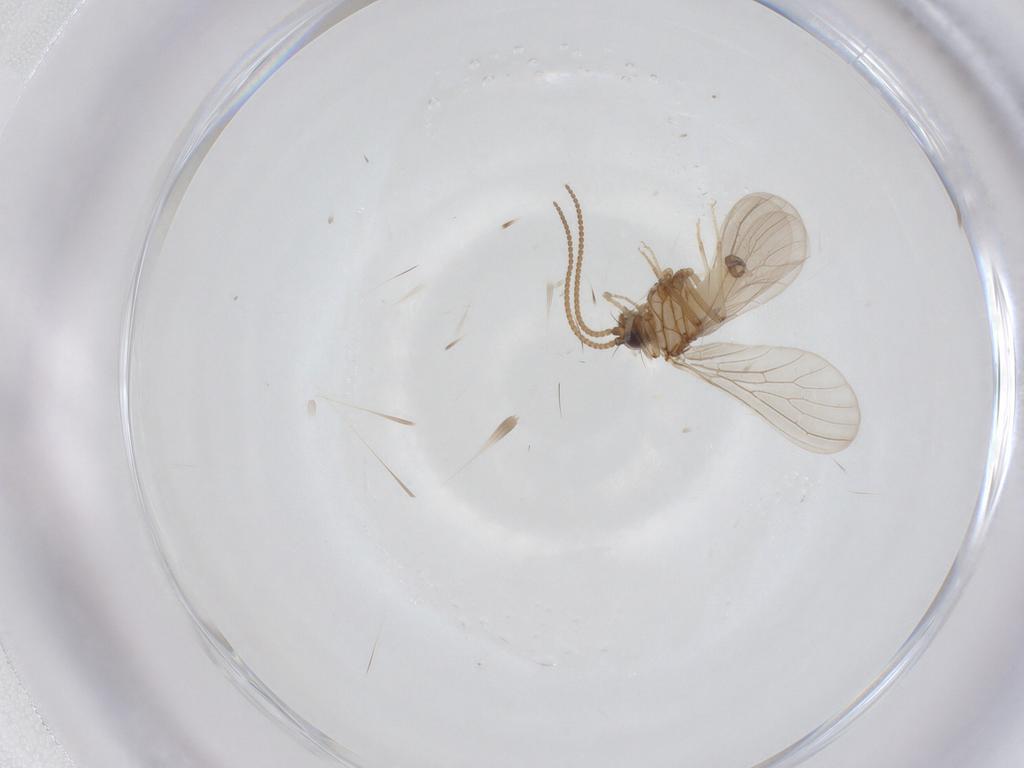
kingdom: Animalia
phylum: Arthropoda
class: Insecta
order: Neuroptera
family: Coniopterygidae
